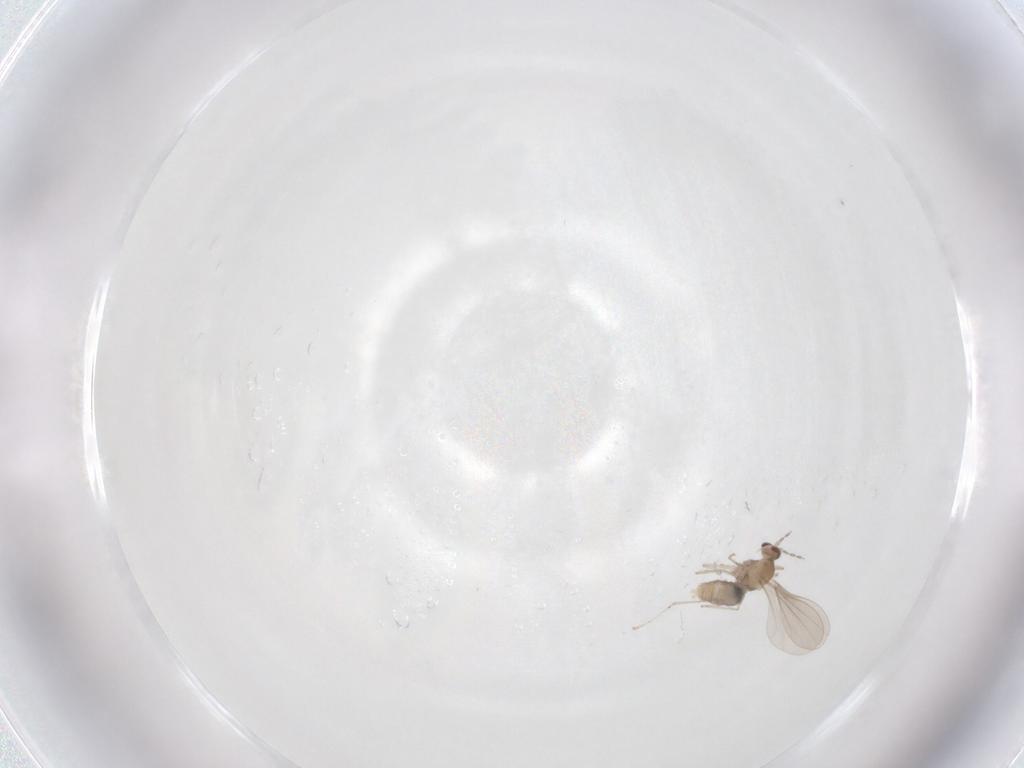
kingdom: Animalia
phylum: Arthropoda
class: Insecta
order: Diptera
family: Cecidomyiidae
